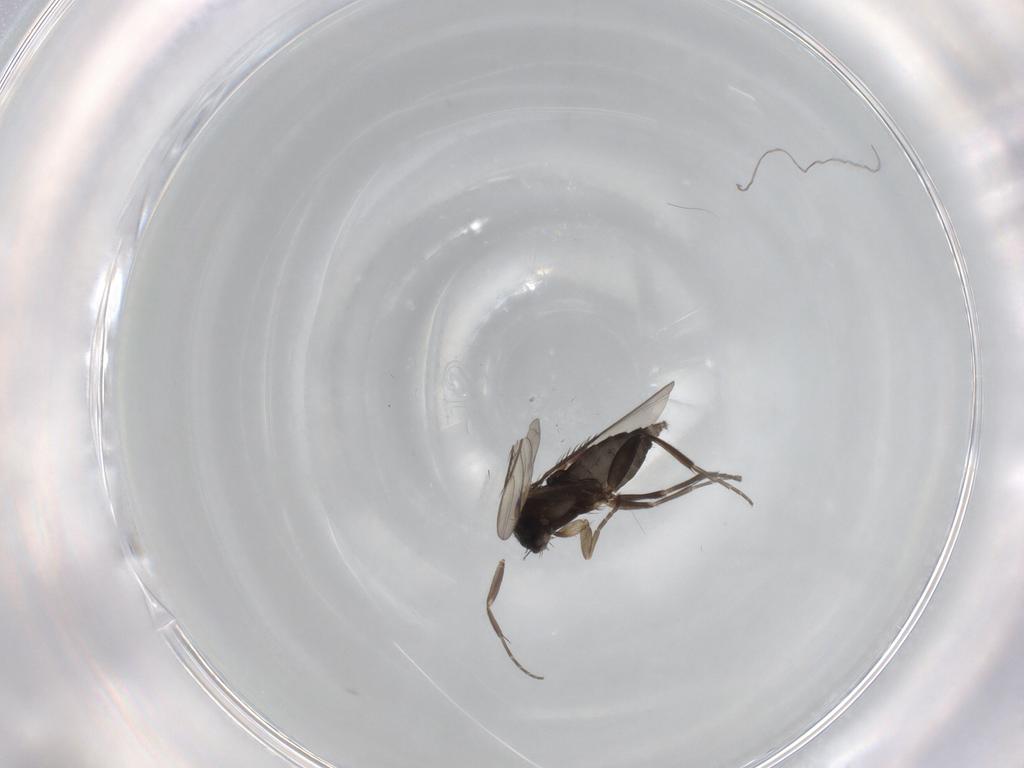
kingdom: Animalia
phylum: Arthropoda
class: Insecta
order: Diptera
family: Phoridae
